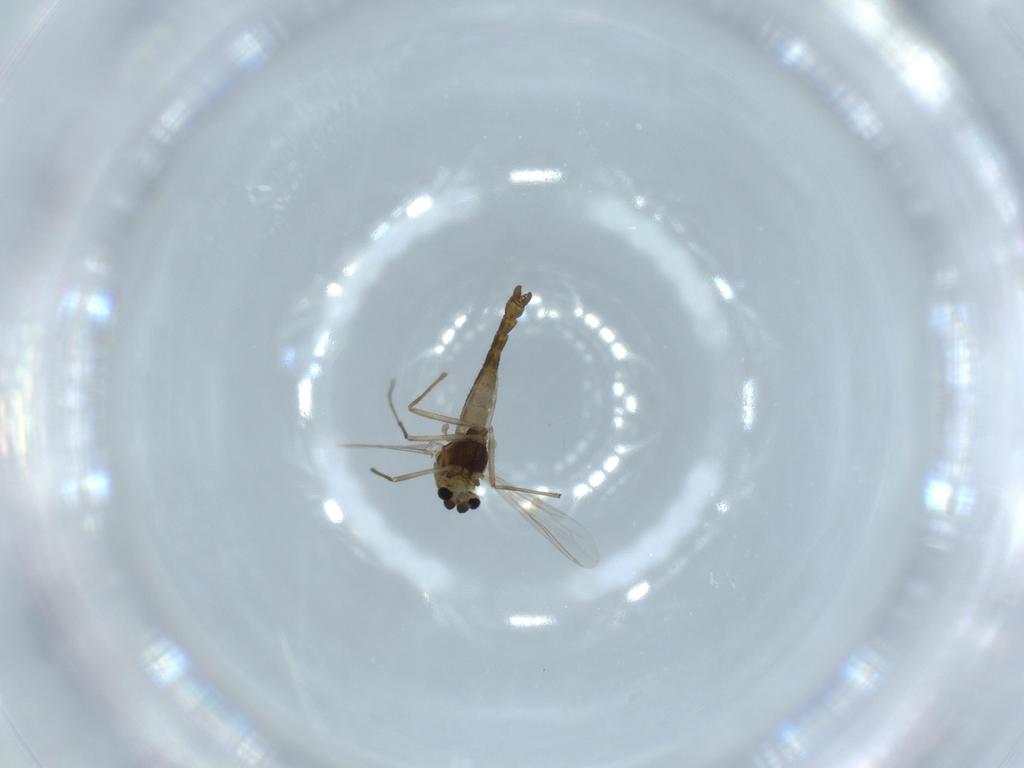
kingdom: Animalia
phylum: Arthropoda
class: Insecta
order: Diptera
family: Chironomidae
